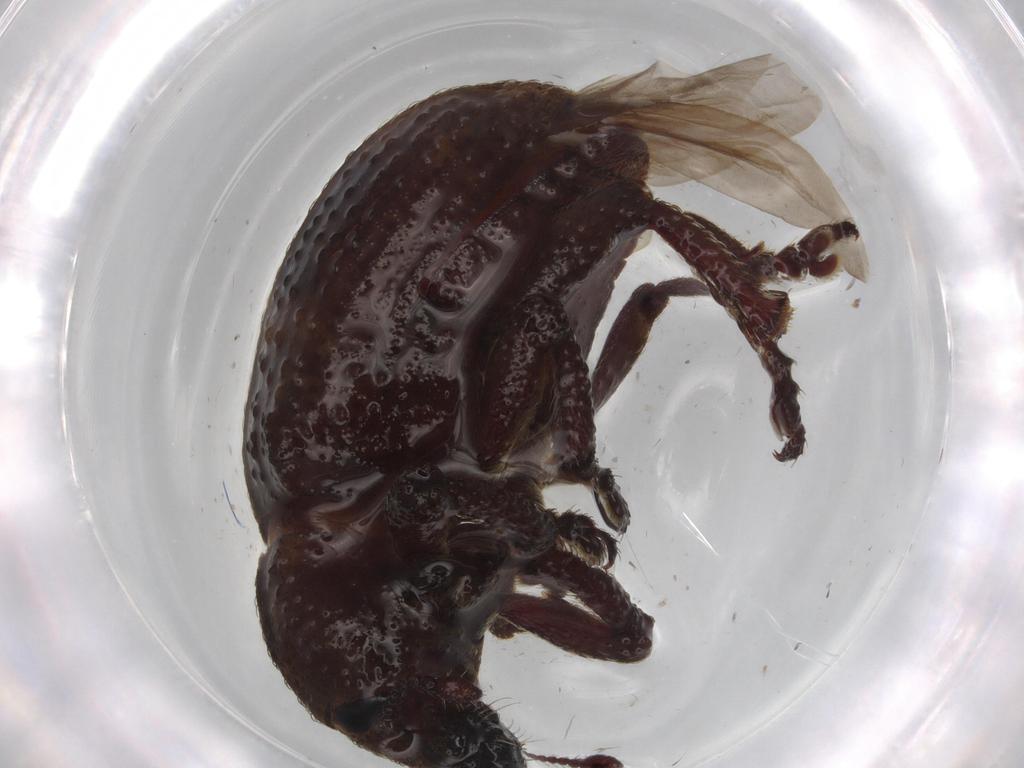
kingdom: Animalia
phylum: Arthropoda
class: Insecta
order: Coleoptera
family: Curculionidae
